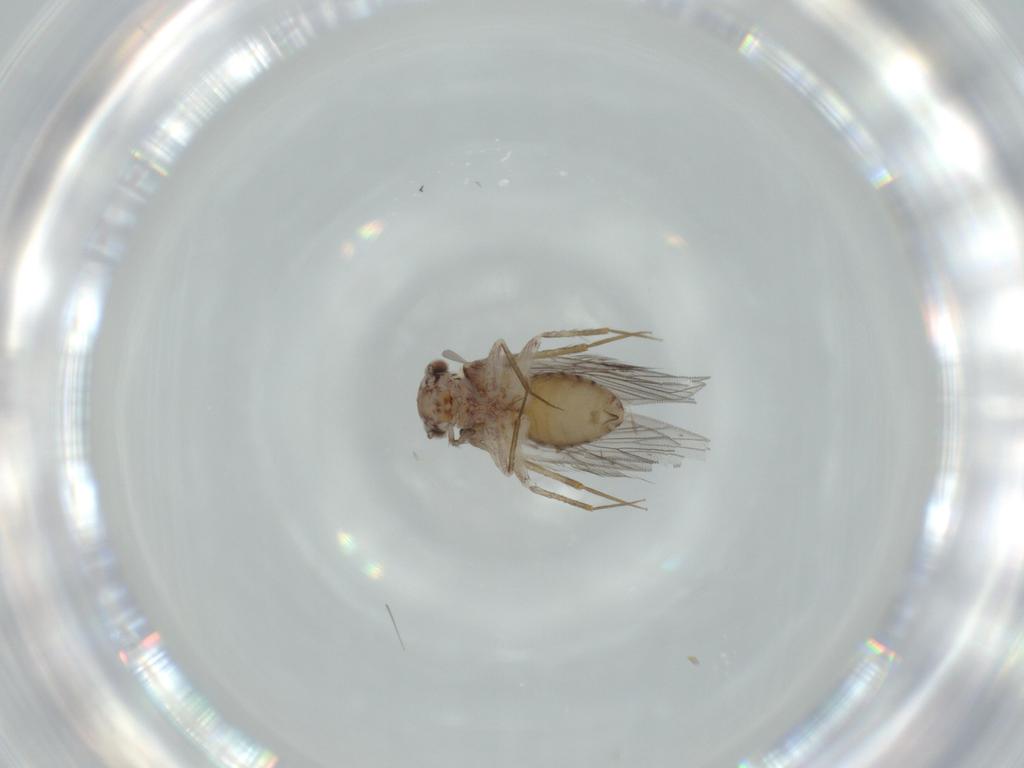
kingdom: Animalia
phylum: Arthropoda
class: Insecta
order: Psocodea
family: Lepidopsocidae
